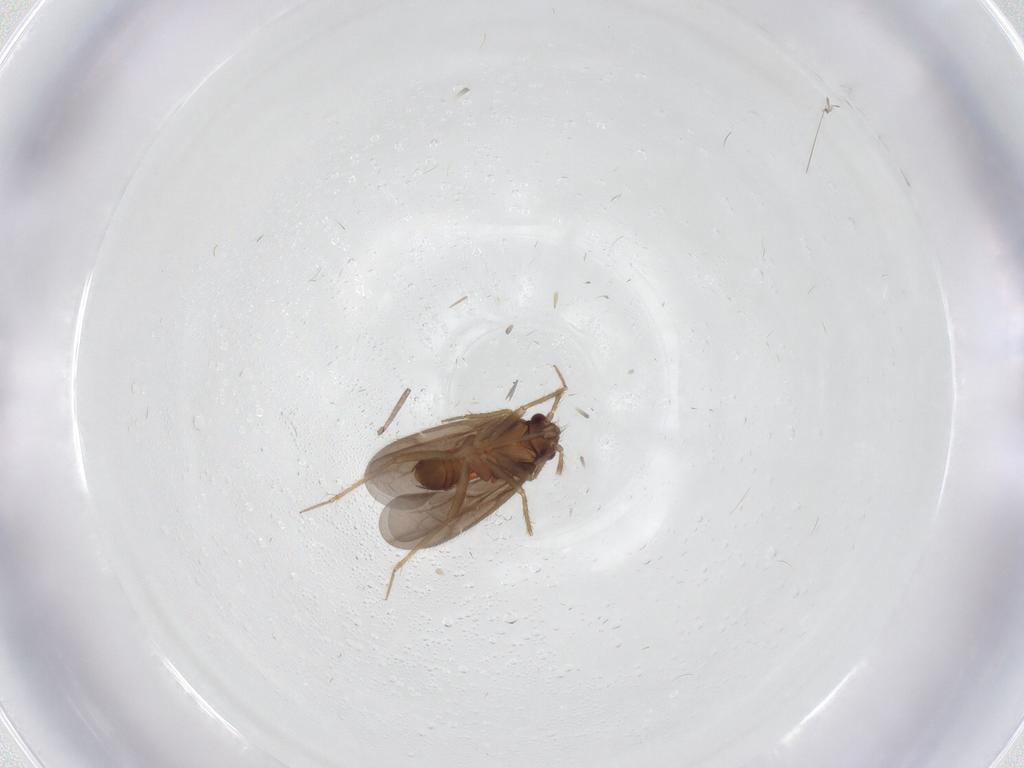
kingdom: Animalia
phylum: Arthropoda
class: Insecta
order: Hemiptera
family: Ceratocombidae
